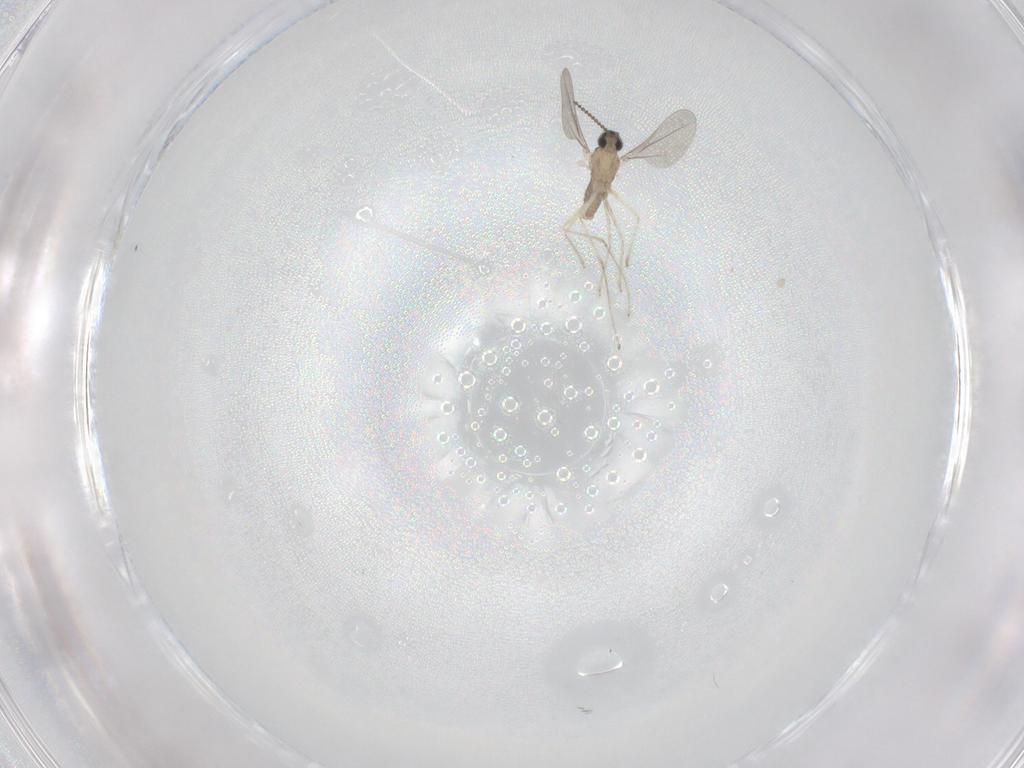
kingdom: Animalia
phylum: Arthropoda
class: Insecta
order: Diptera
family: Cecidomyiidae
